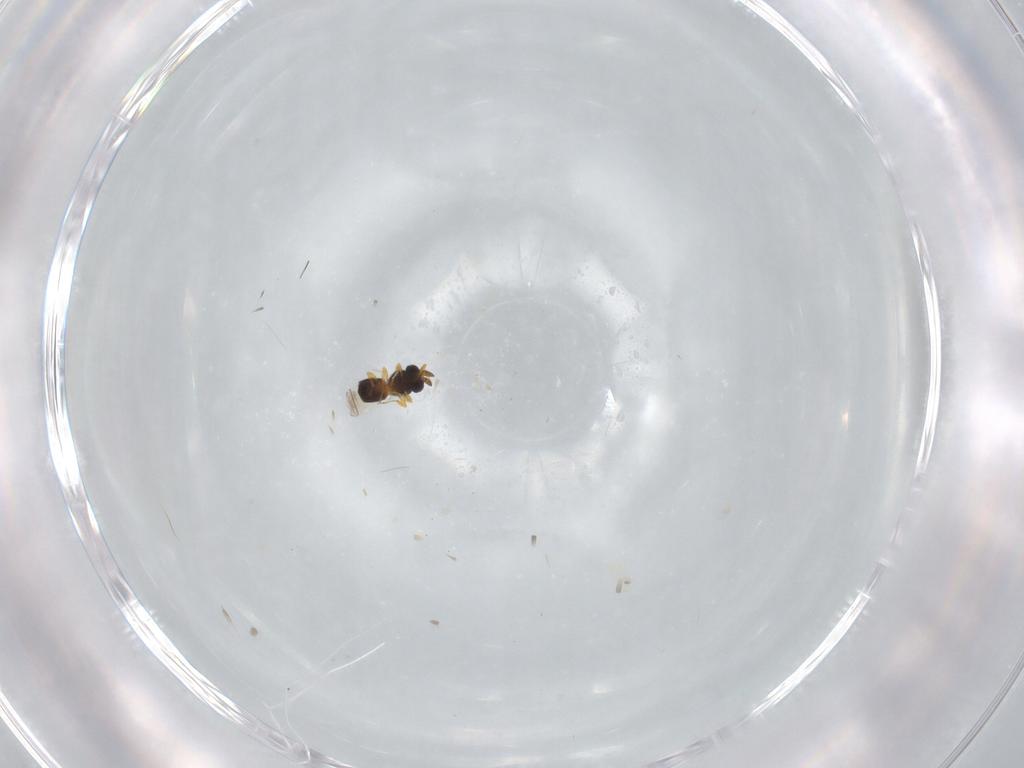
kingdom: Animalia
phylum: Arthropoda
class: Insecta
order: Hymenoptera
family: Platygastridae
